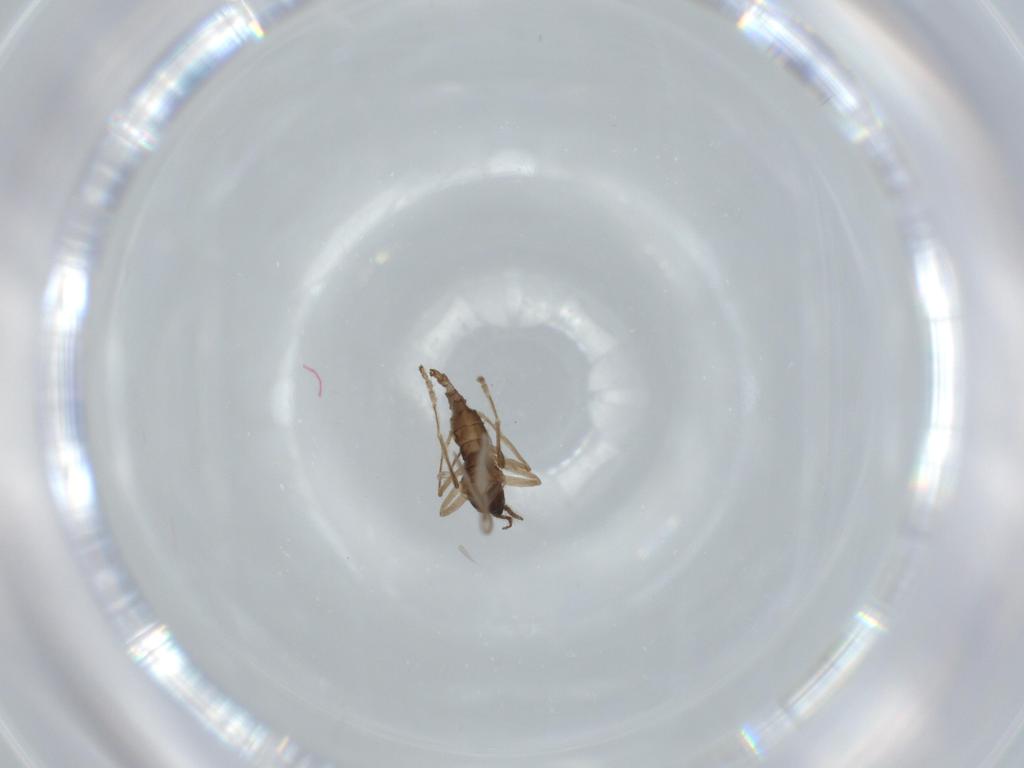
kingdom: Animalia
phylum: Arthropoda
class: Insecta
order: Diptera
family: Cecidomyiidae
